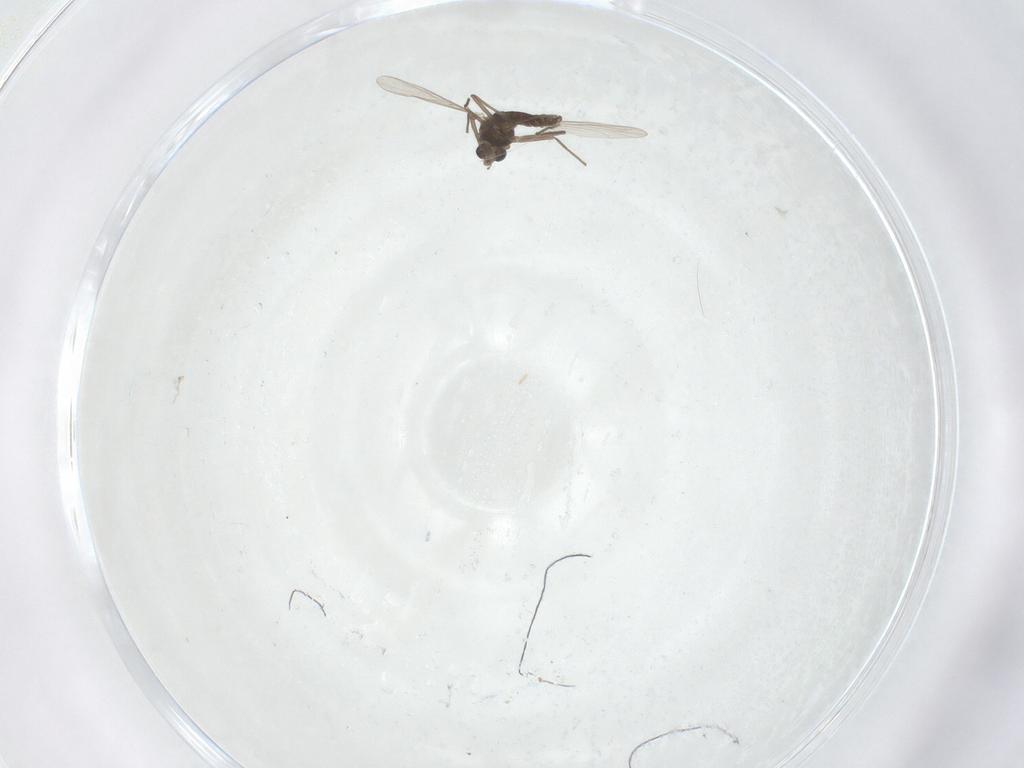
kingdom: Animalia
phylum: Arthropoda
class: Insecta
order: Diptera
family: Chironomidae
